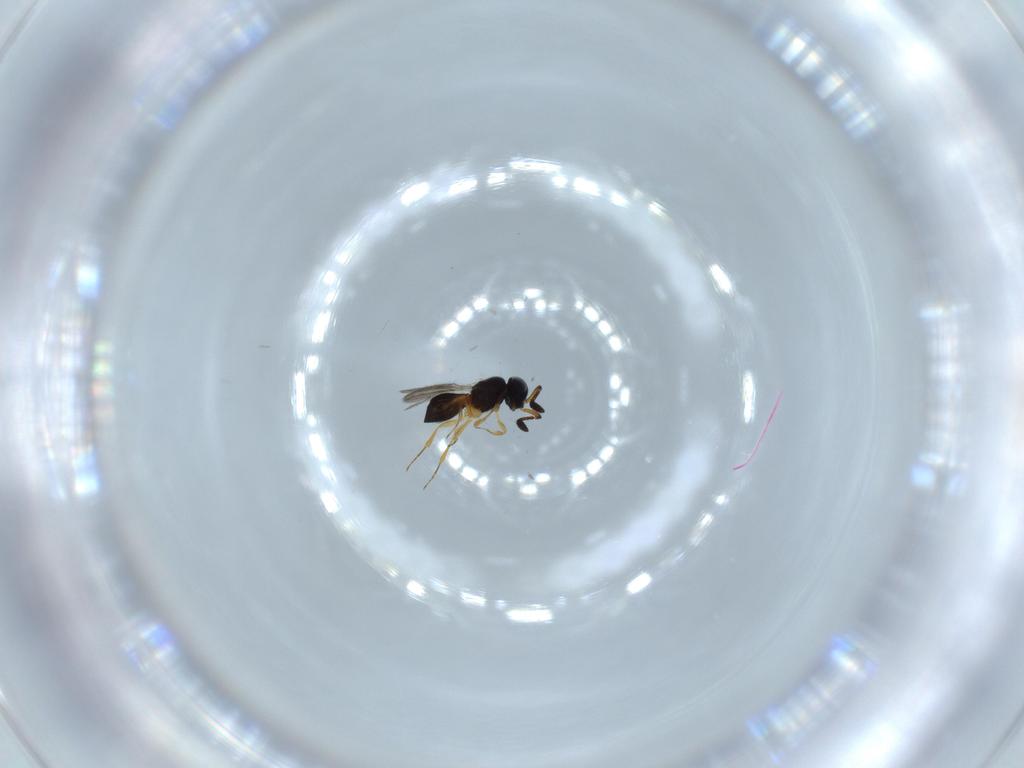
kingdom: Animalia
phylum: Arthropoda
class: Insecta
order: Hymenoptera
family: Scelionidae
